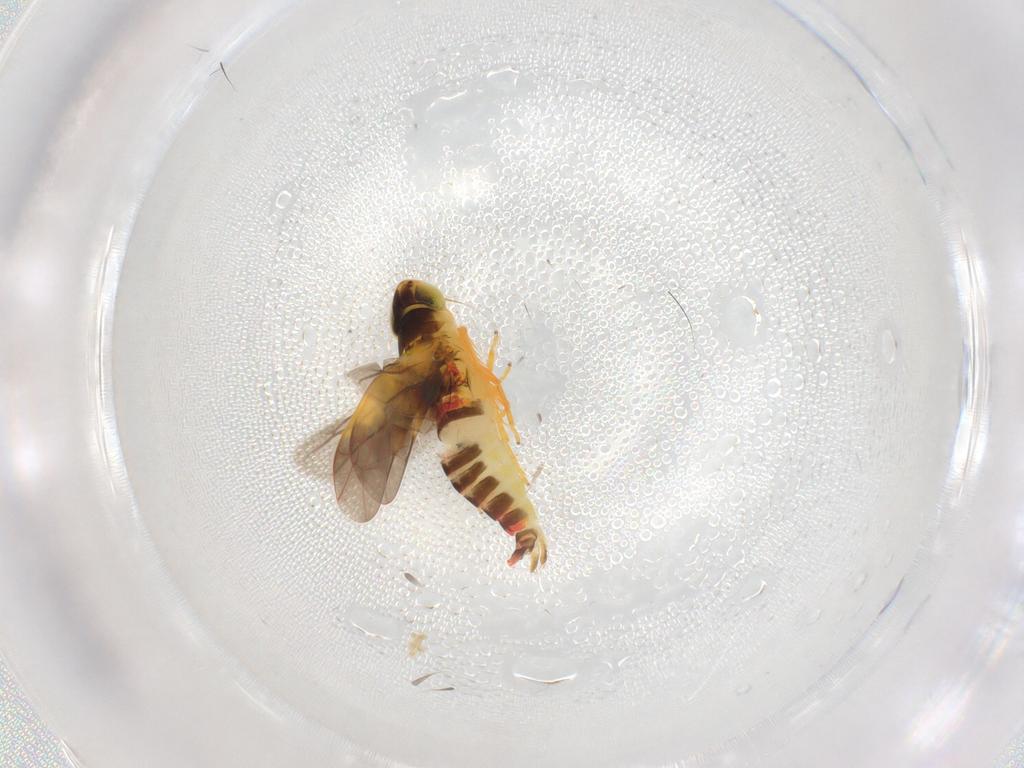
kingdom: Animalia
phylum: Arthropoda
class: Insecta
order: Hemiptera
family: Cicadellidae
